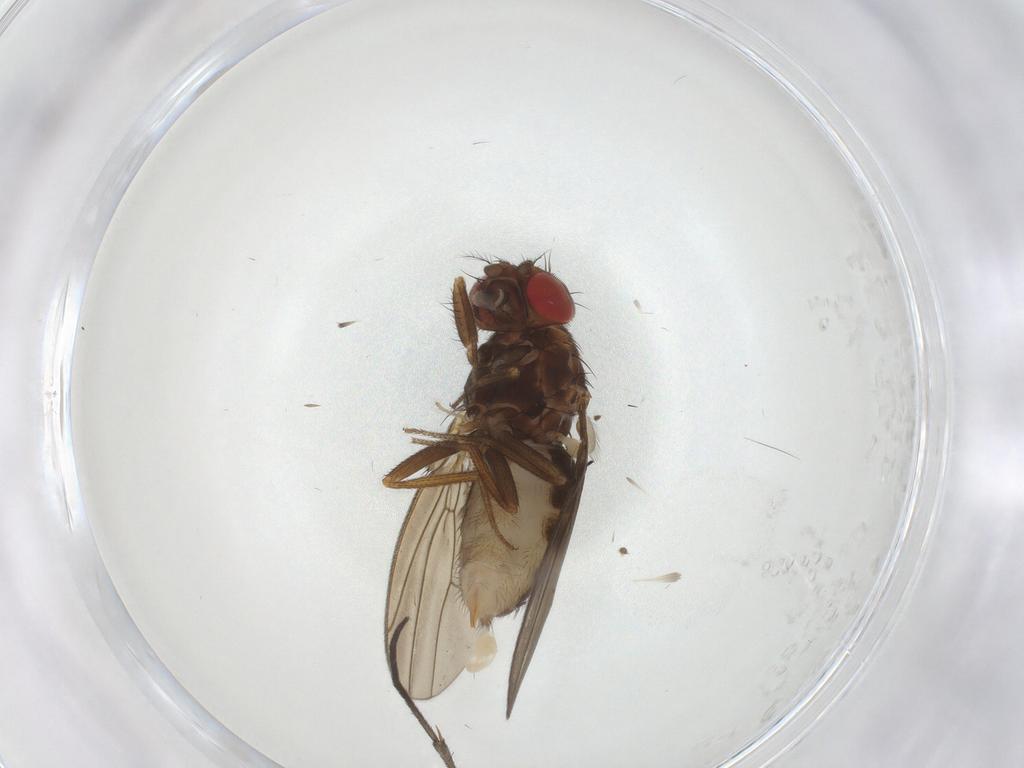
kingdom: Animalia
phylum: Arthropoda
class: Insecta
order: Diptera
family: Drosophilidae
